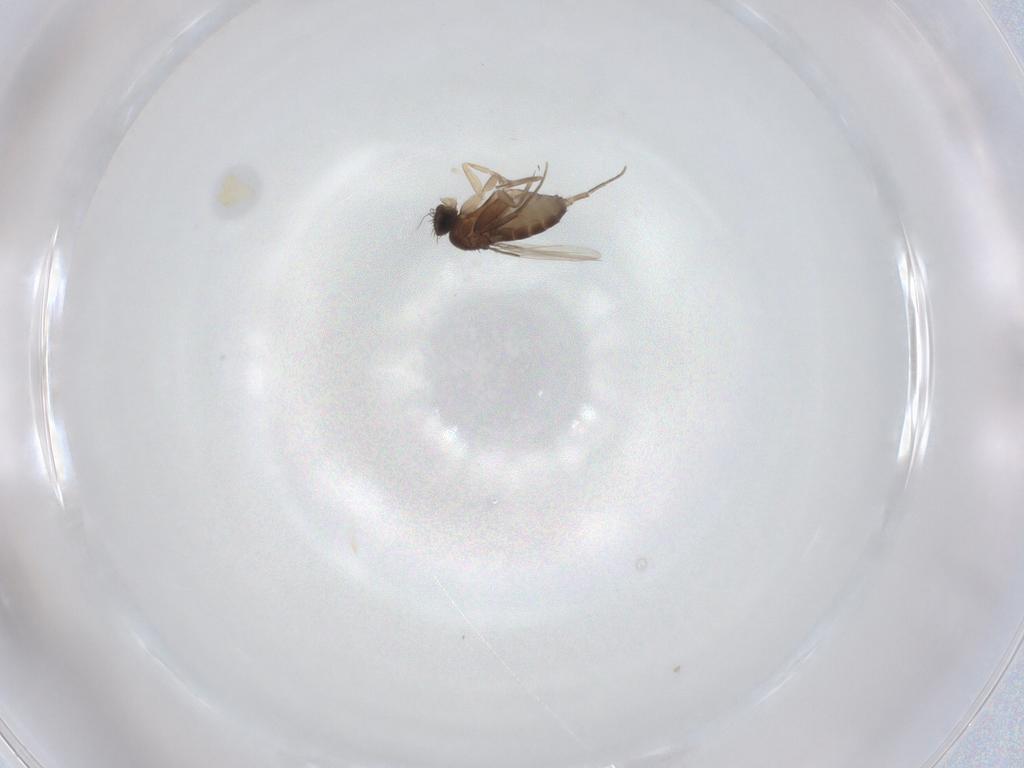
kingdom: Animalia
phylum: Arthropoda
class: Insecta
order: Diptera
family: Phoridae
